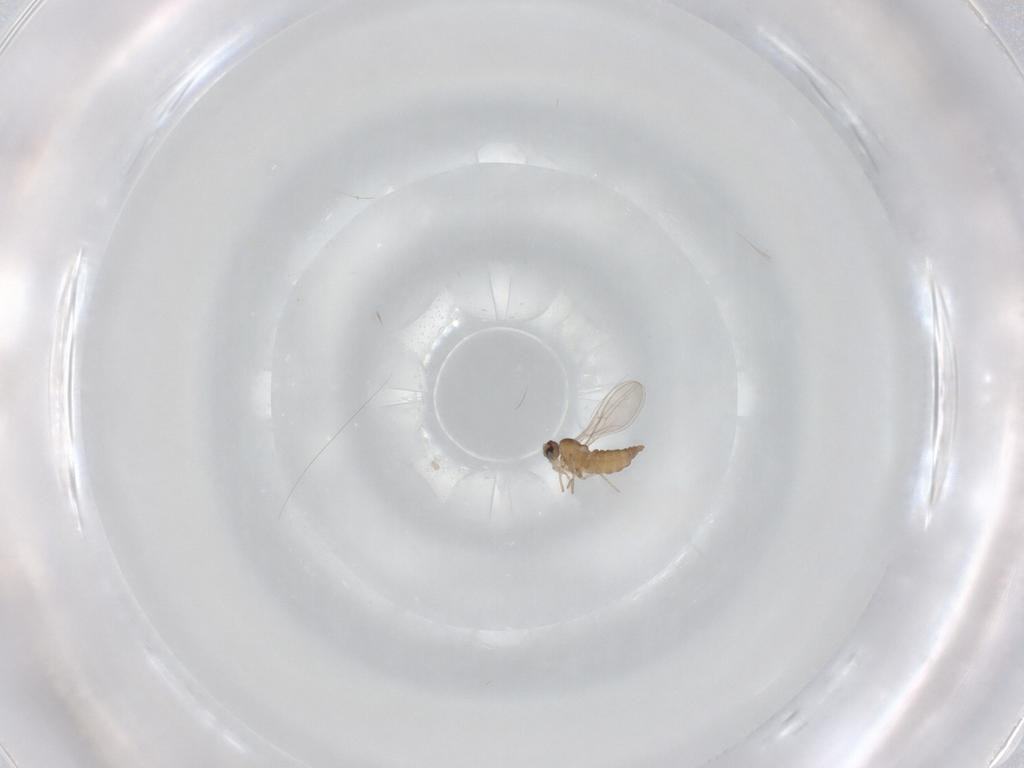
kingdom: Animalia
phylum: Arthropoda
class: Insecta
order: Diptera
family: Cecidomyiidae
